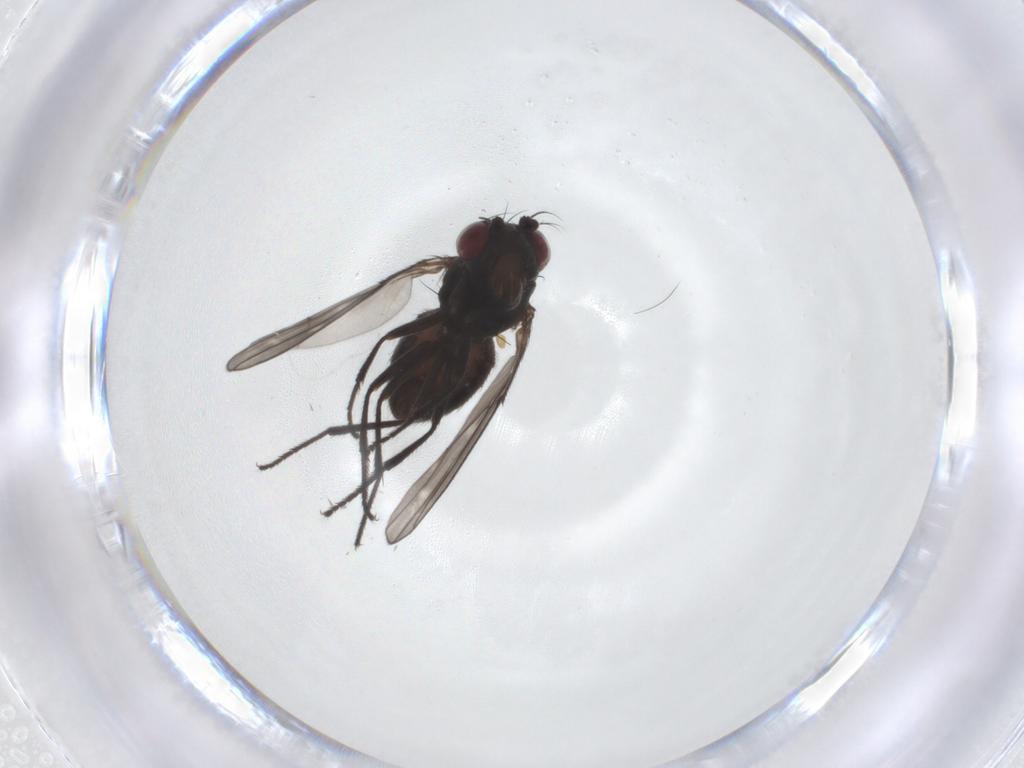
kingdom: Animalia
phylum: Arthropoda
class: Insecta
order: Diptera
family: Ephydridae
